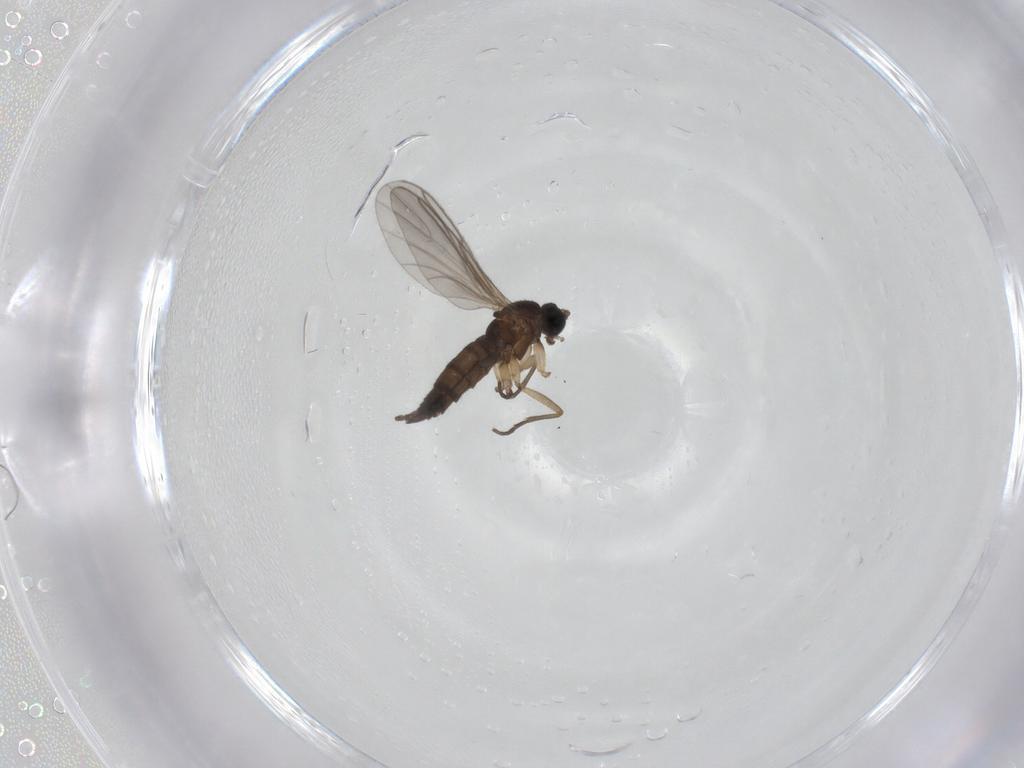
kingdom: Animalia
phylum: Arthropoda
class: Insecta
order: Diptera
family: Sciaridae
